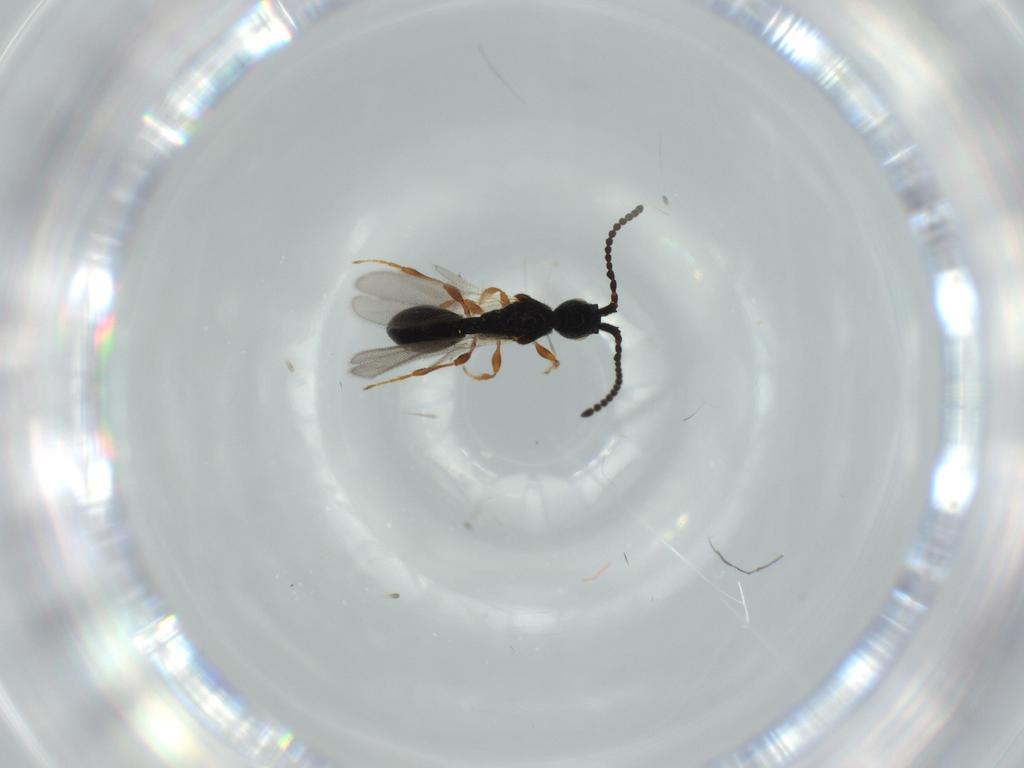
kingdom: Animalia
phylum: Arthropoda
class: Insecta
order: Hymenoptera
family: Diapriidae
